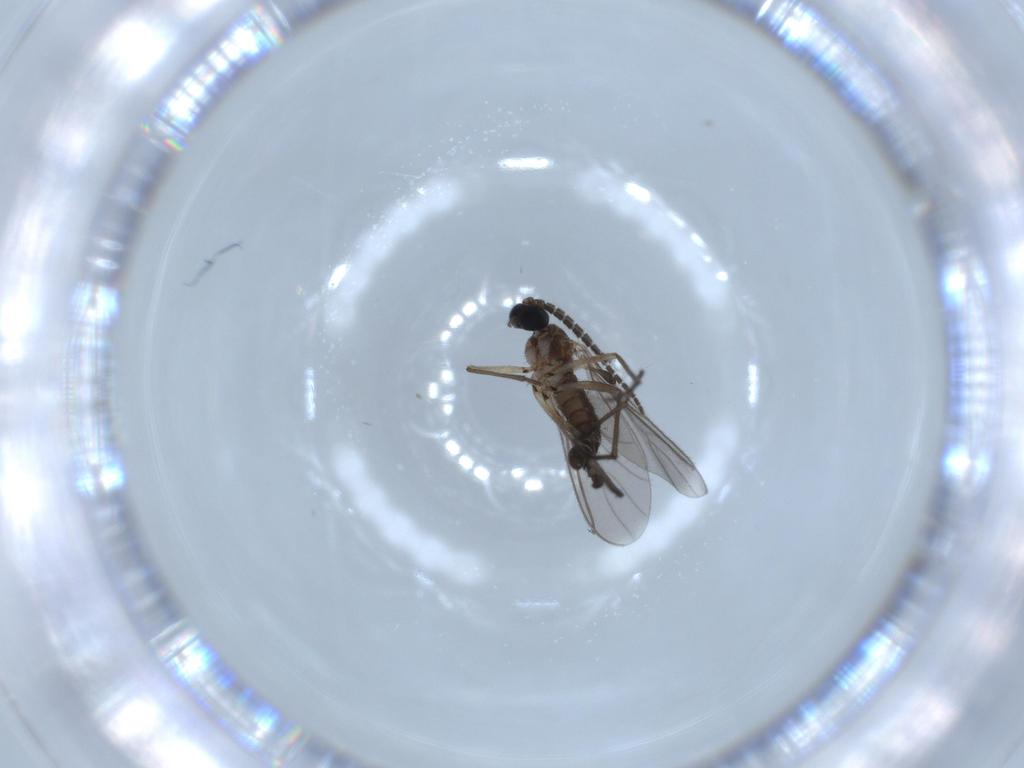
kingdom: Animalia
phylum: Arthropoda
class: Insecta
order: Diptera
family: Sciaridae
